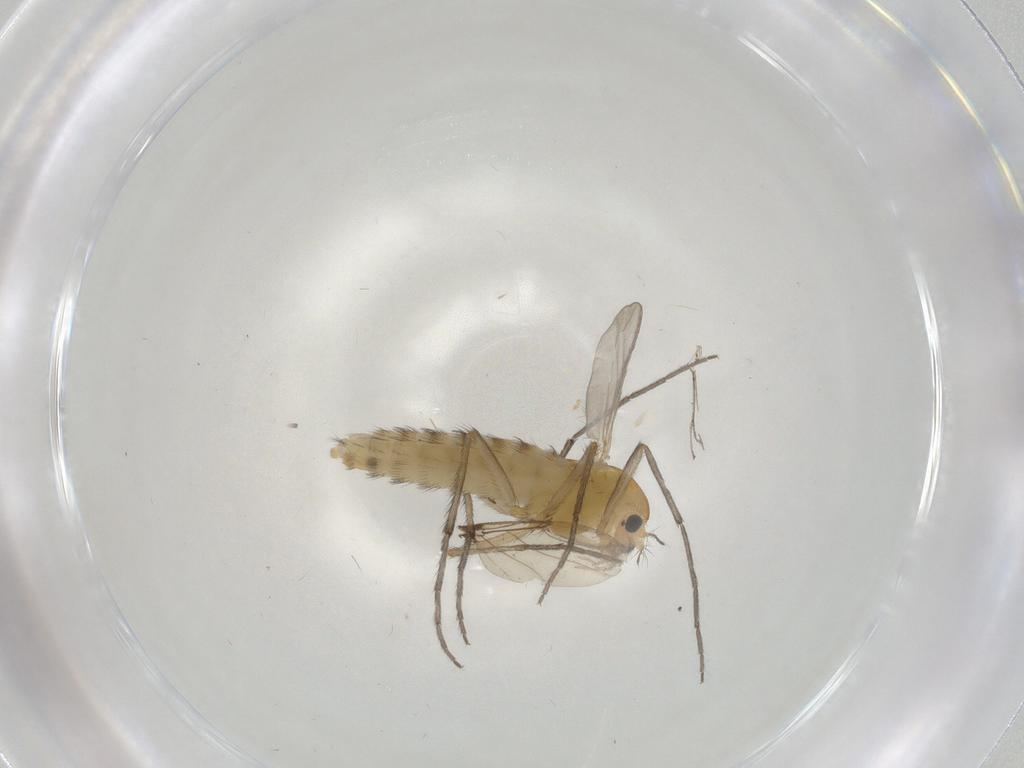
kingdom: Animalia
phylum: Arthropoda
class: Insecta
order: Diptera
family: Chironomidae
